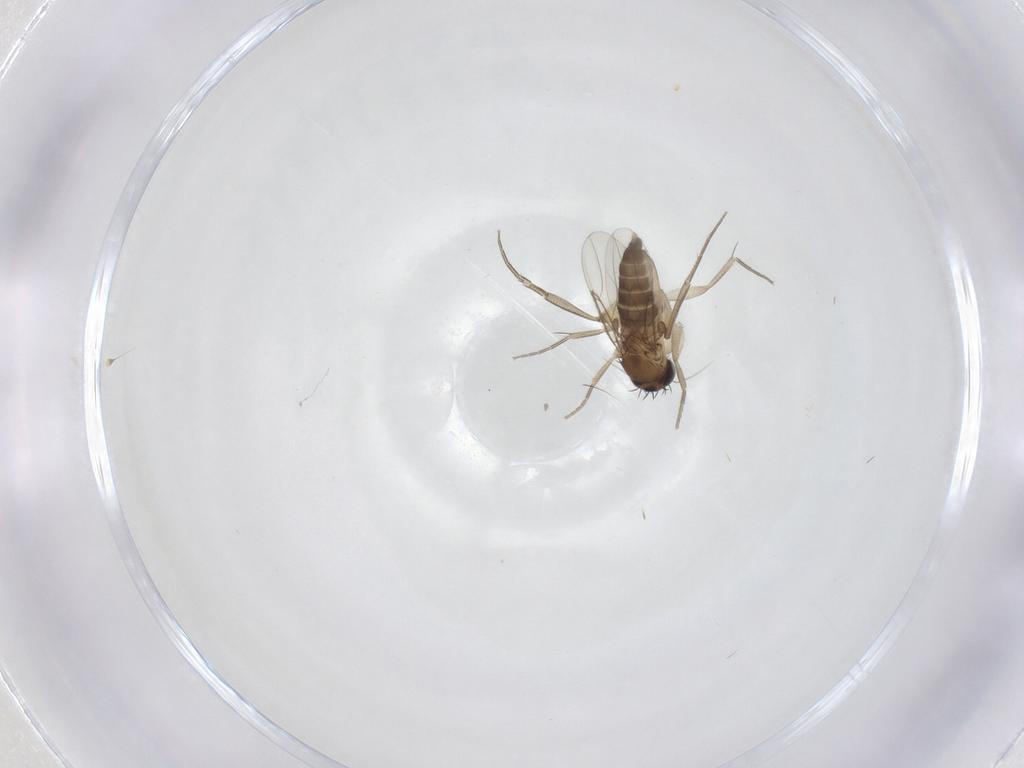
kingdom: Animalia
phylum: Arthropoda
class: Insecta
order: Diptera
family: Phoridae
